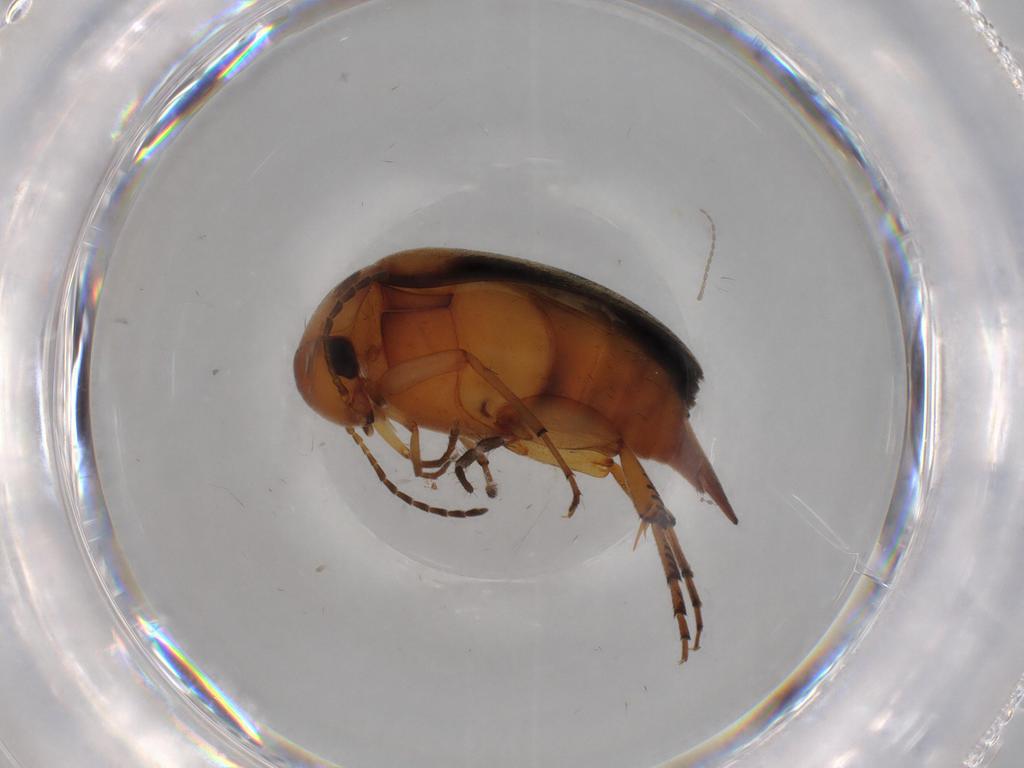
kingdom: Animalia
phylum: Arthropoda
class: Insecta
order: Coleoptera
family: Mordellidae
